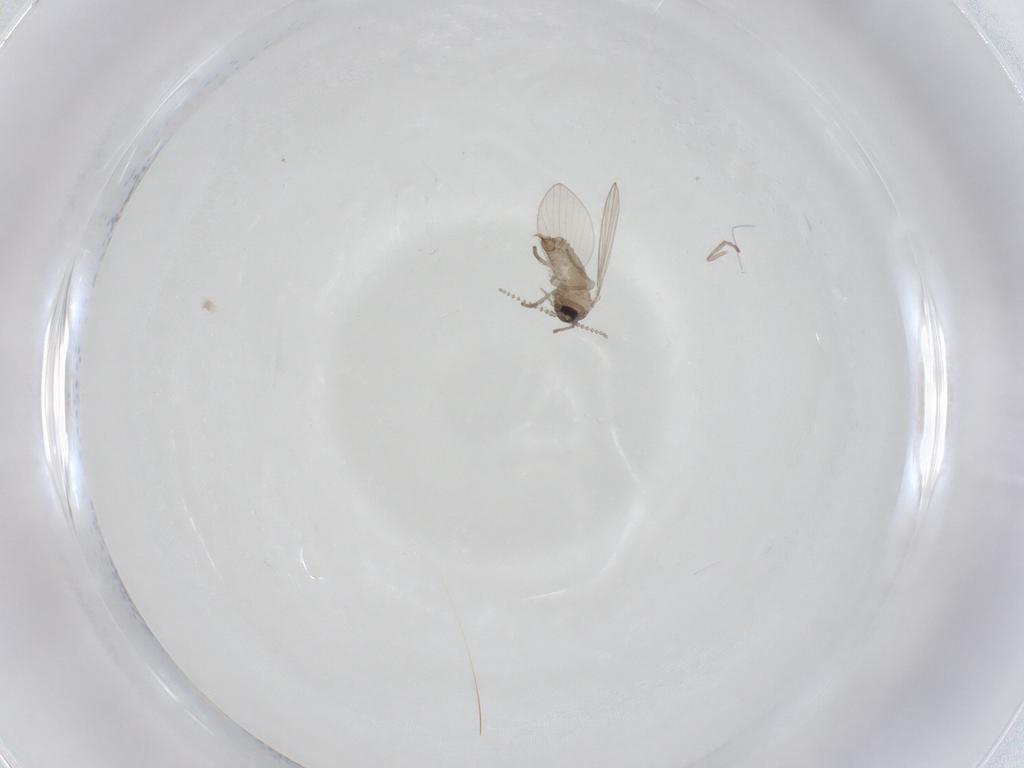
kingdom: Animalia
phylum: Arthropoda
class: Insecta
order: Diptera
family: Psychodidae
